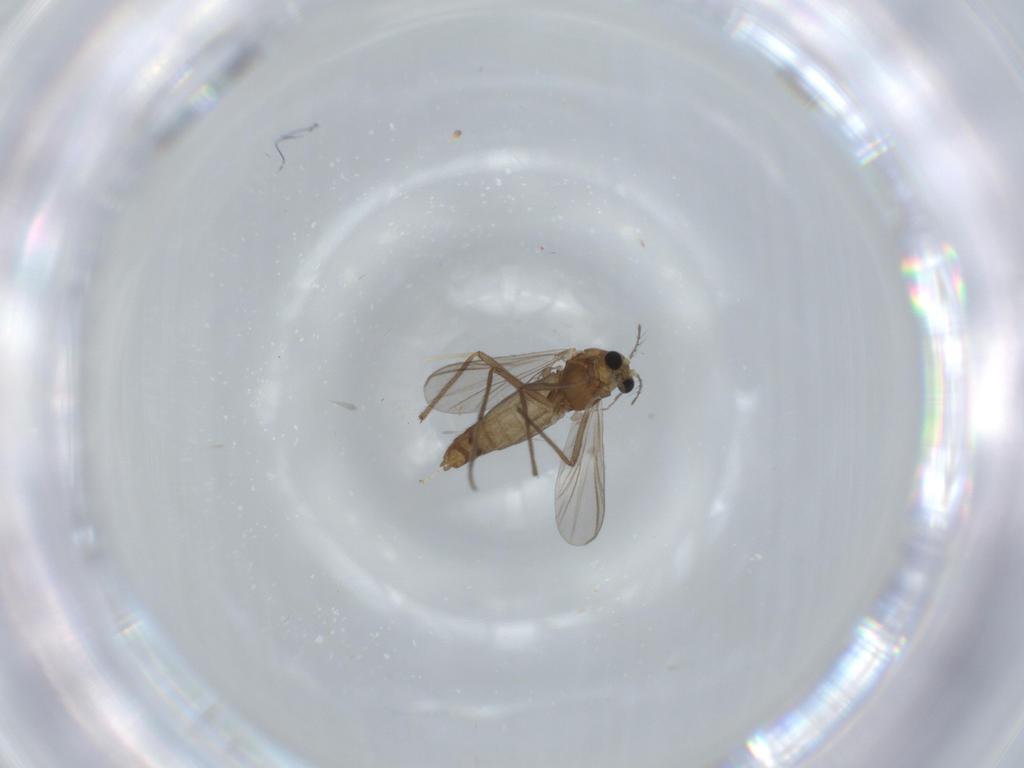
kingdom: Animalia
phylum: Arthropoda
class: Insecta
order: Diptera
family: Chironomidae
